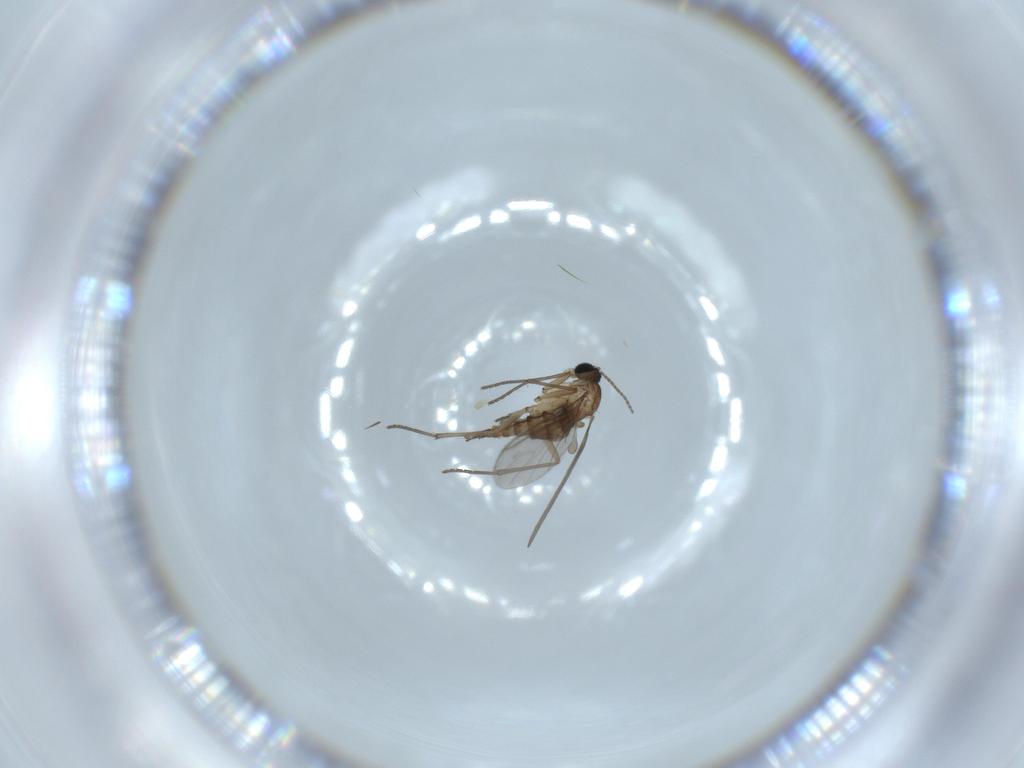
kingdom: Animalia
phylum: Arthropoda
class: Insecta
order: Diptera
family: Sciaridae
